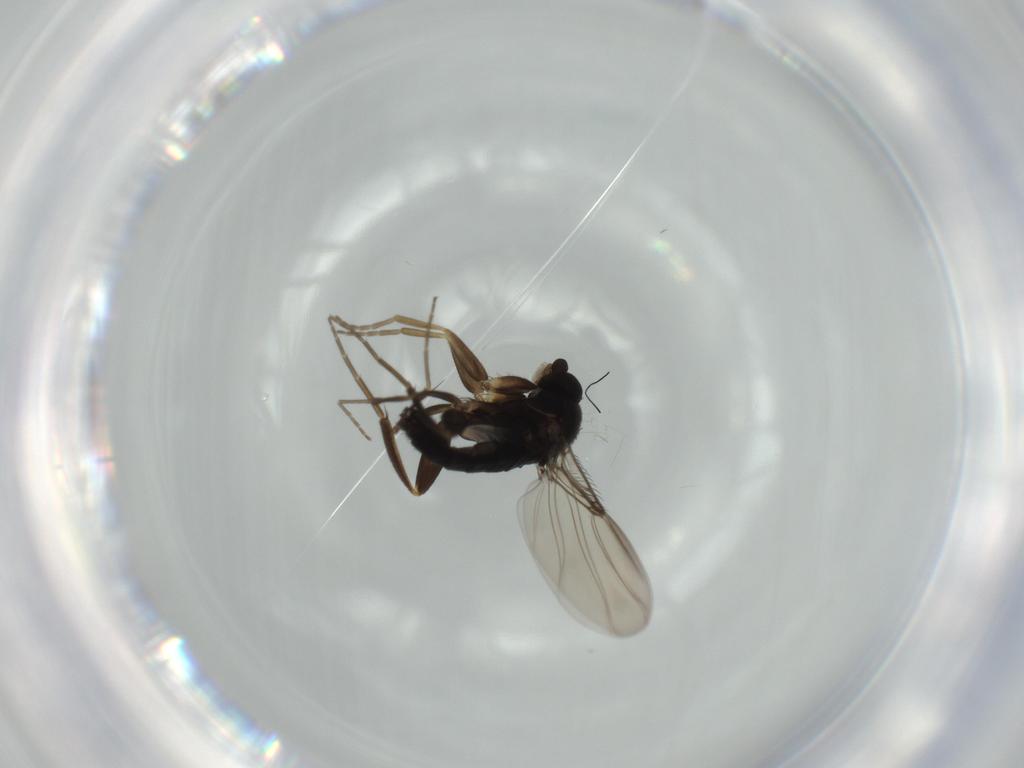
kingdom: Animalia
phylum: Arthropoda
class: Insecta
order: Diptera
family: Phoridae
